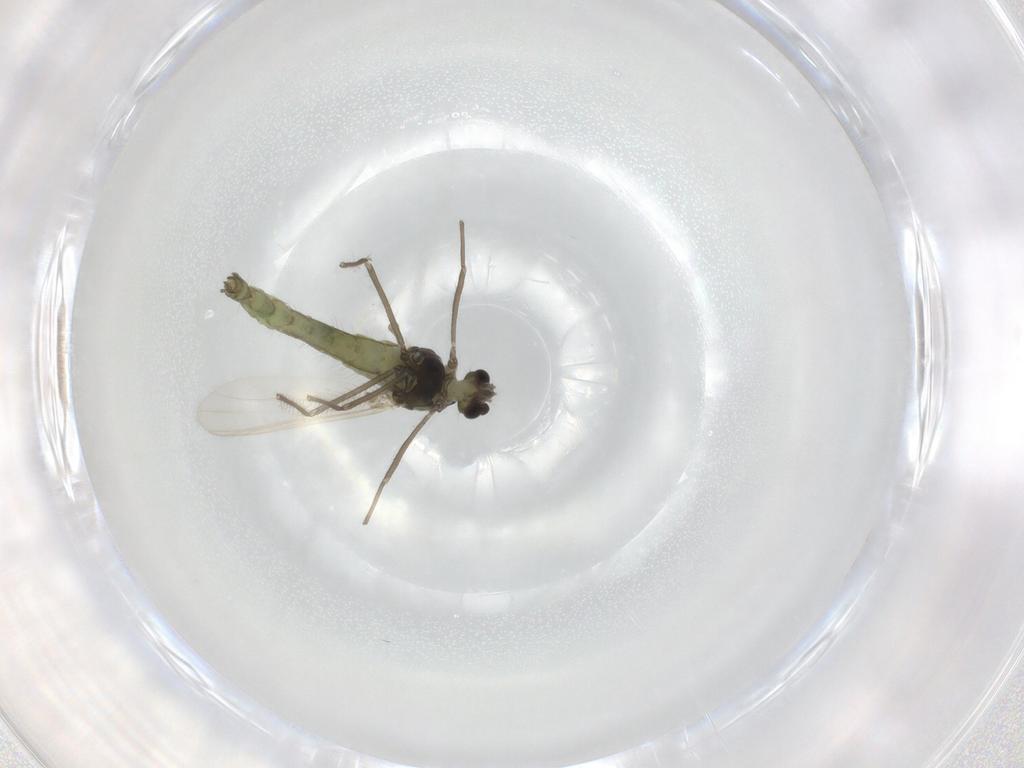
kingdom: Animalia
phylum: Arthropoda
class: Insecta
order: Diptera
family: Chironomidae
